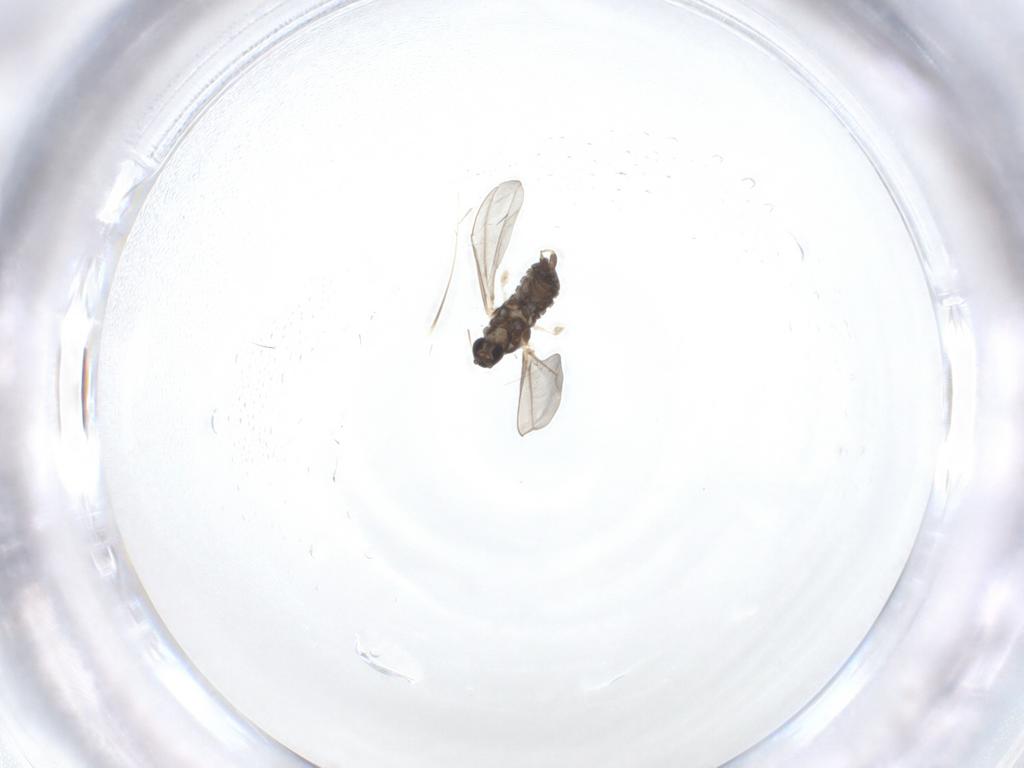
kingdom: Animalia
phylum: Arthropoda
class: Insecta
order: Diptera
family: Cecidomyiidae
